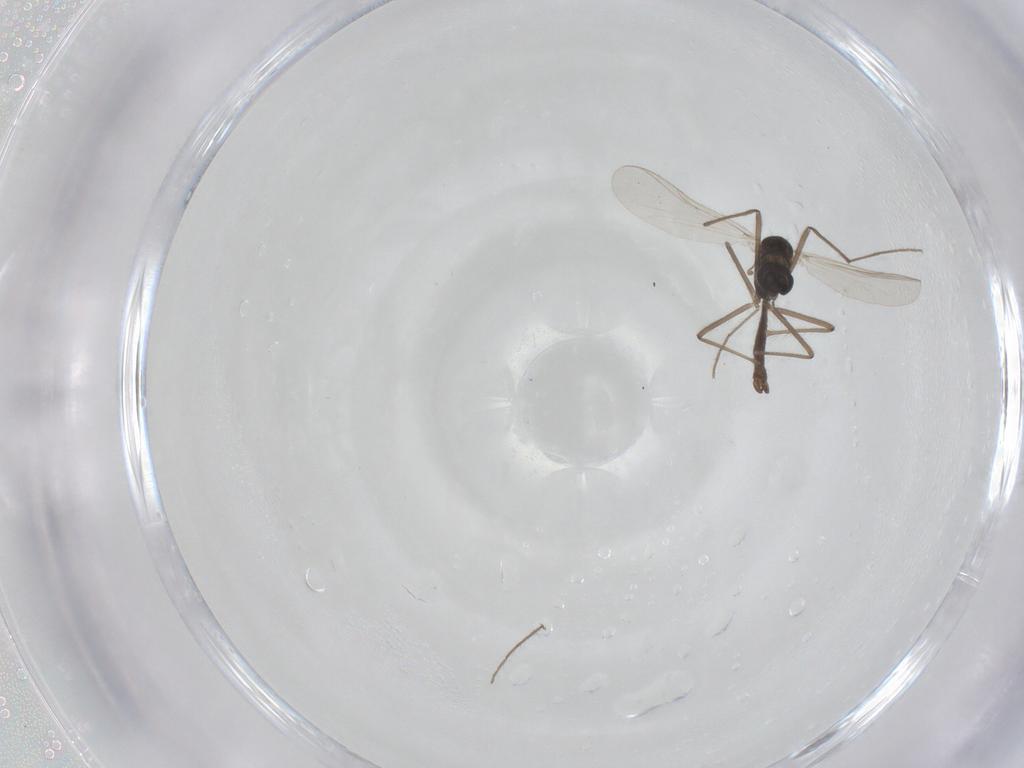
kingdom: Animalia
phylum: Arthropoda
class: Insecta
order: Diptera
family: Chironomidae
